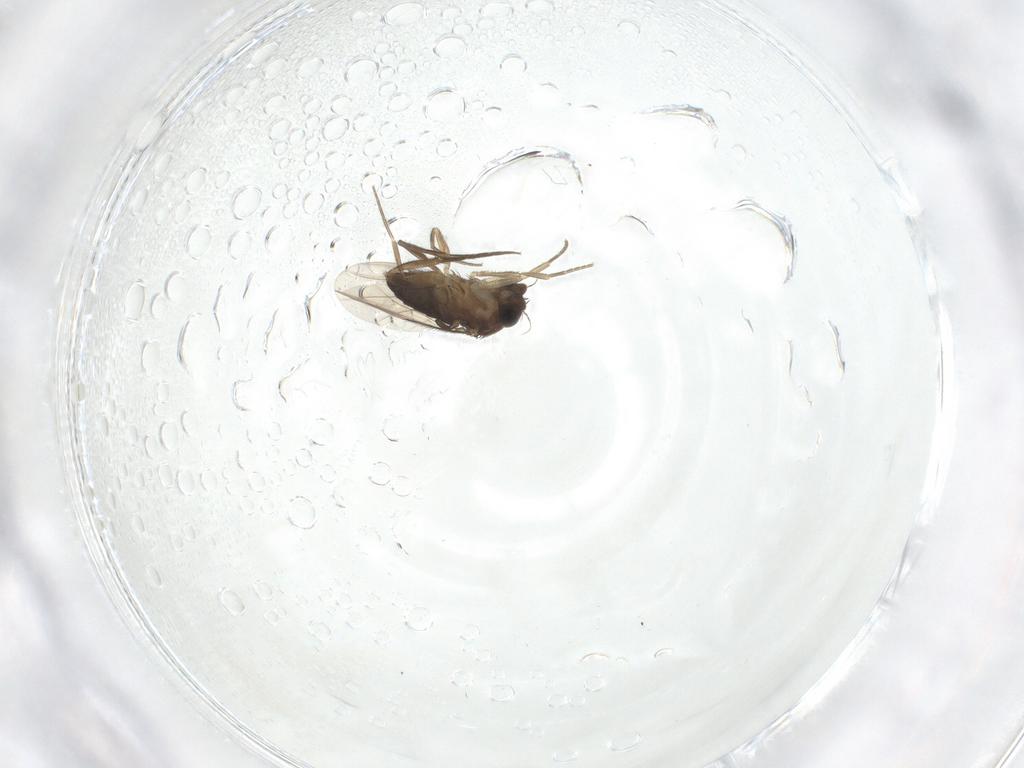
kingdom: Animalia
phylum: Arthropoda
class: Insecta
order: Diptera
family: Phoridae
